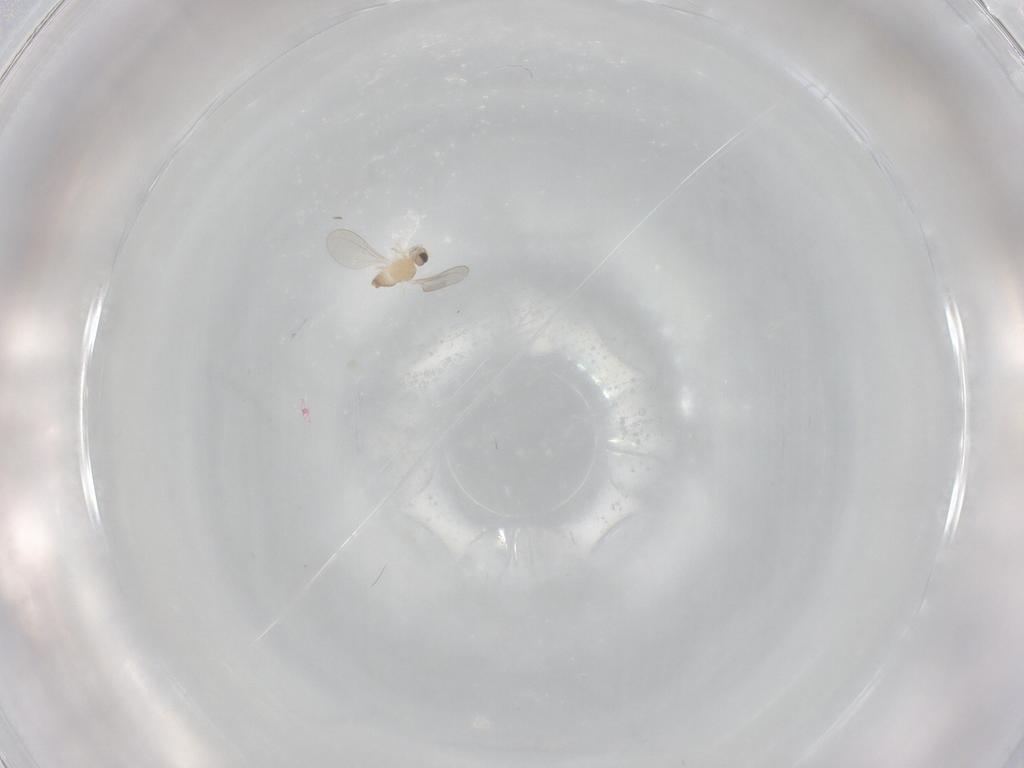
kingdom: Animalia
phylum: Arthropoda
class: Insecta
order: Diptera
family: Cecidomyiidae
